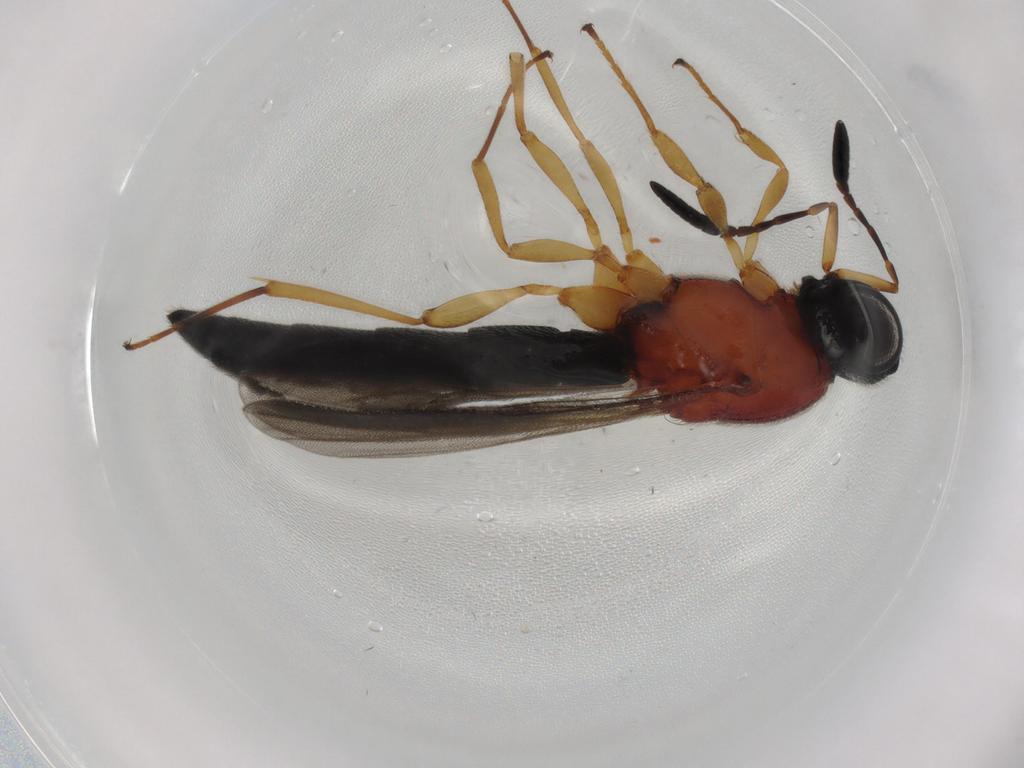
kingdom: Animalia
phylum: Arthropoda
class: Insecta
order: Hymenoptera
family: Scelionidae
